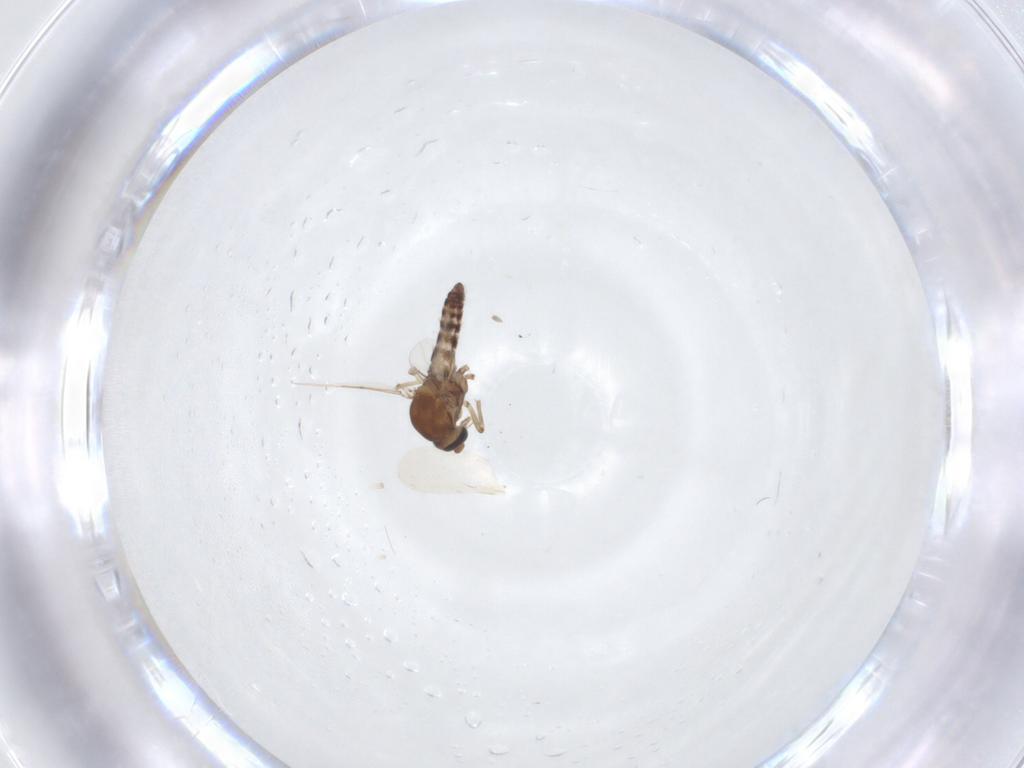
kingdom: Animalia
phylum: Arthropoda
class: Insecta
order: Diptera
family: Ceratopogonidae
